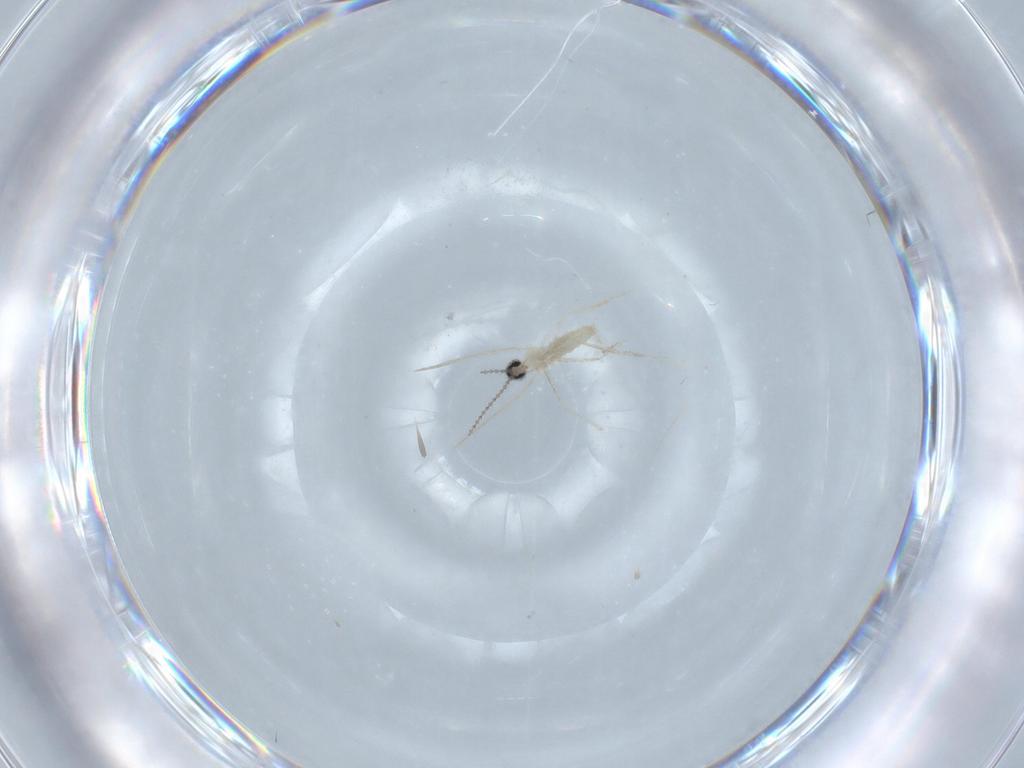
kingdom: Animalia
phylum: Arthropoda
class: Insecta
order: Diptera
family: Cecidomyiidae
